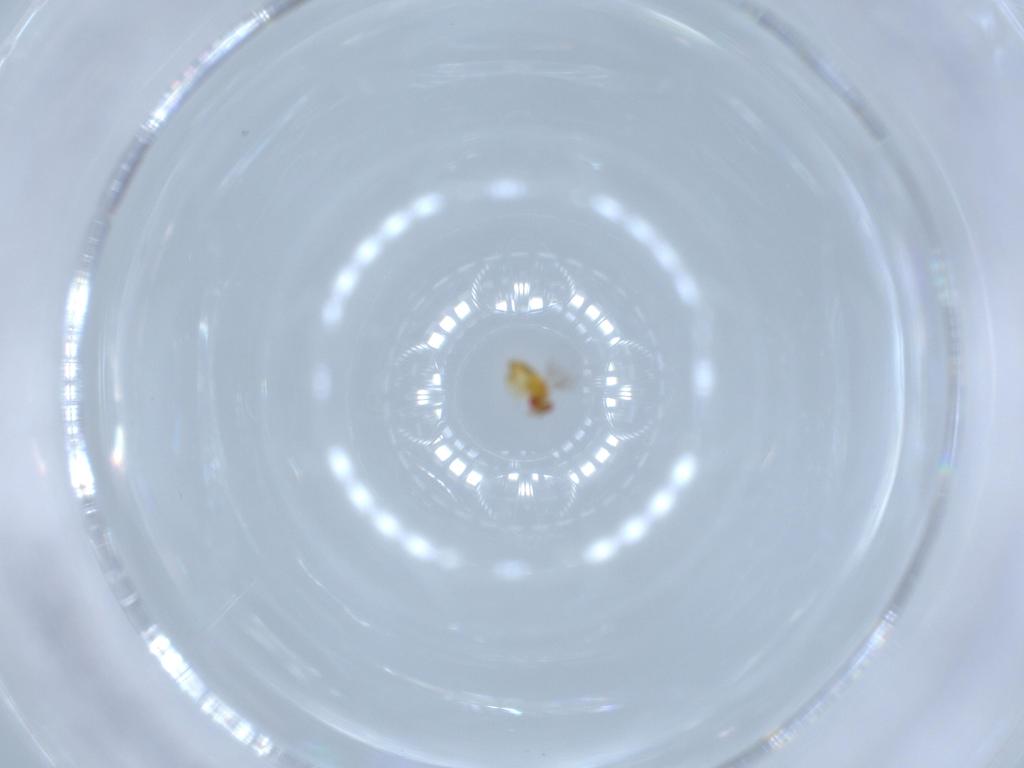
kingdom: Animalia
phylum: Arthropoda
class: Insecta
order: Hymenoptera
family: Trichogrammatidae
